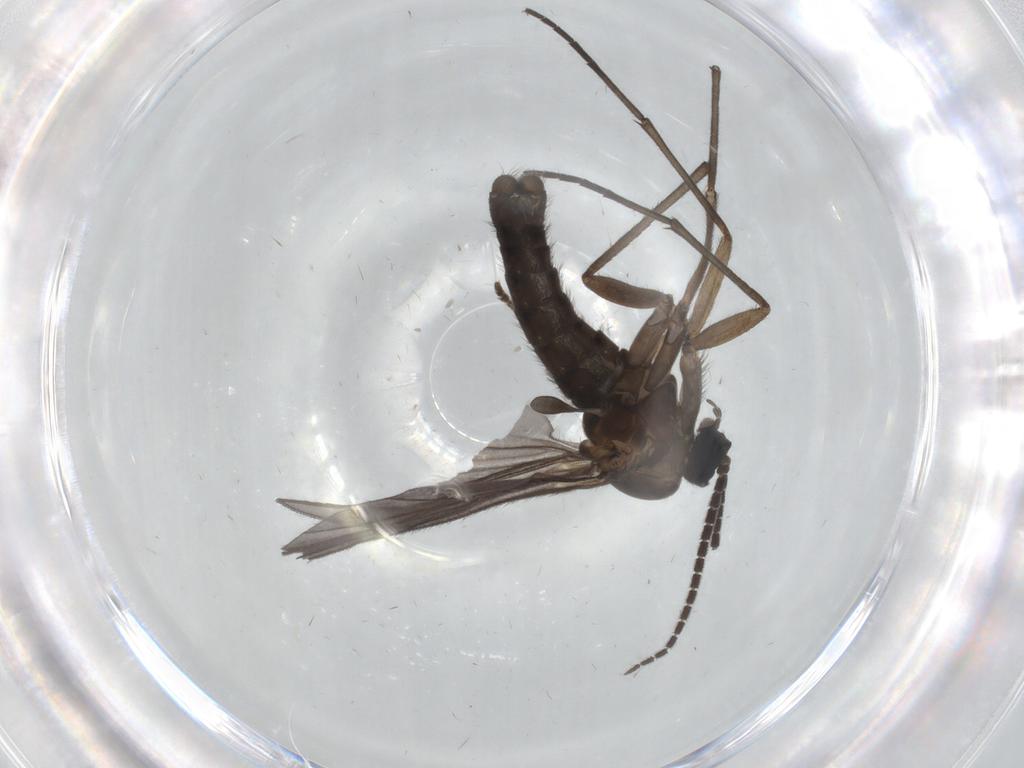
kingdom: Animalia
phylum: Arthropoda
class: Insecta
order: Diptera
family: Sciaridae
